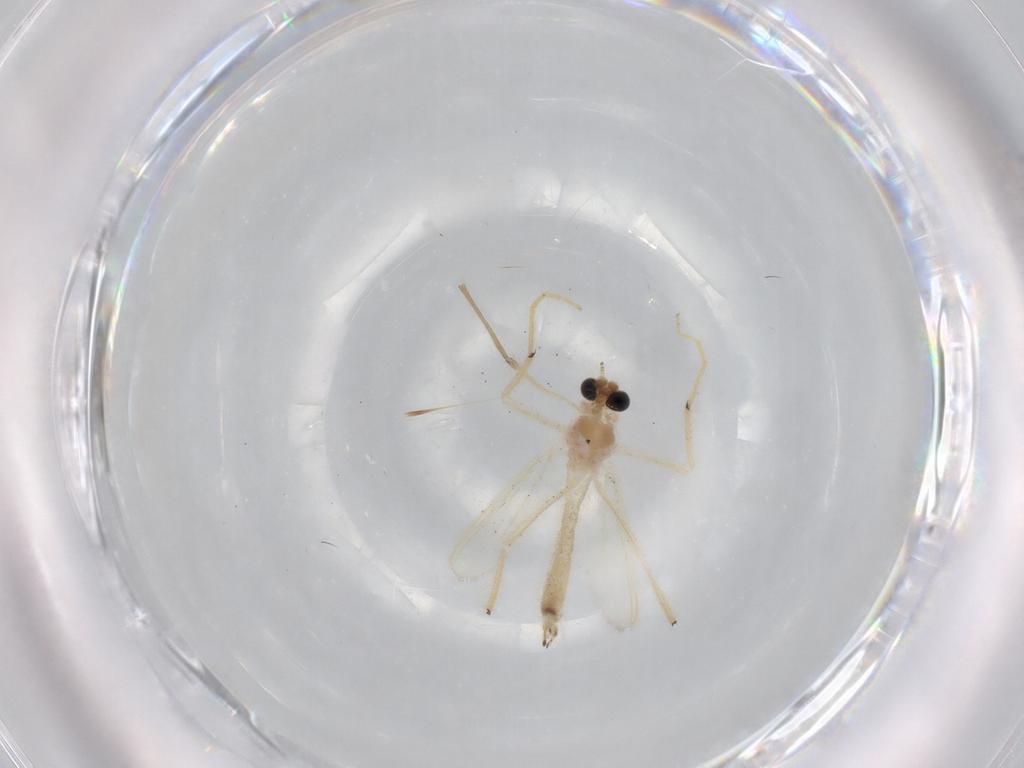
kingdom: Animalia
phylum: Arthropoda
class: Insecta
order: Diptera
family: Chironomidae
